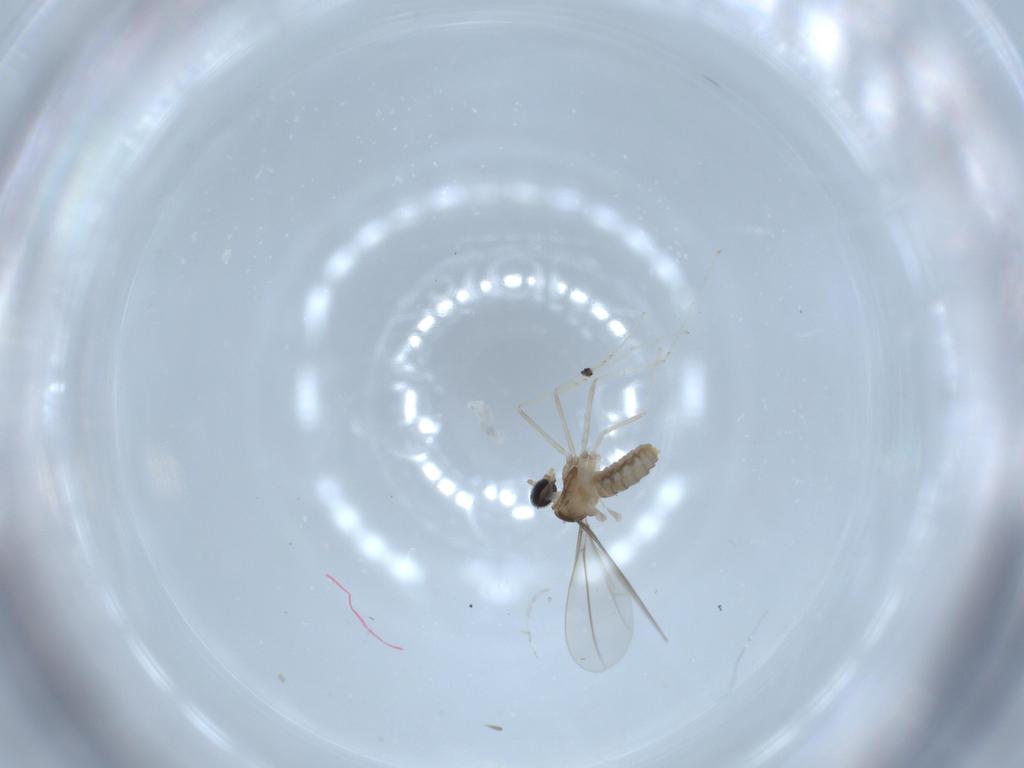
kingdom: Animalia
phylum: Arthropoda
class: Insecta
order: Diptera
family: Cecidomyiidae
